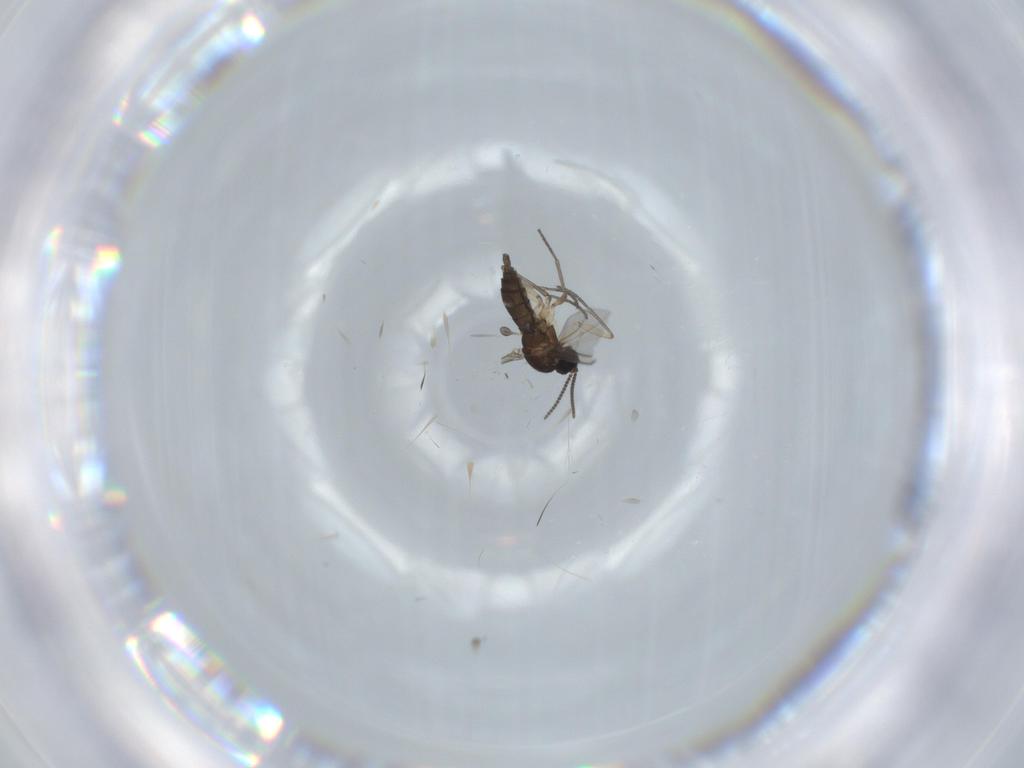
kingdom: Animalia
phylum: Arthropoda
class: Insecta
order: Diptera
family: Sciaridae
